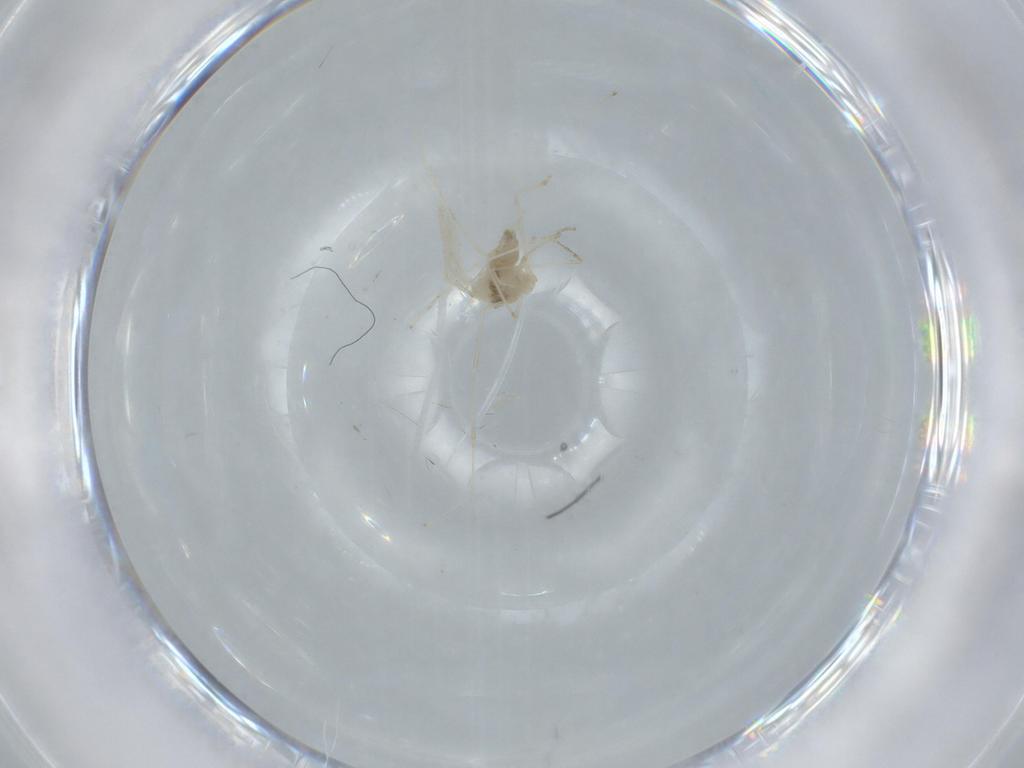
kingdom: Animalia
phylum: Arthropoda
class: Insecta
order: Diptera
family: Cecidomyiidae
